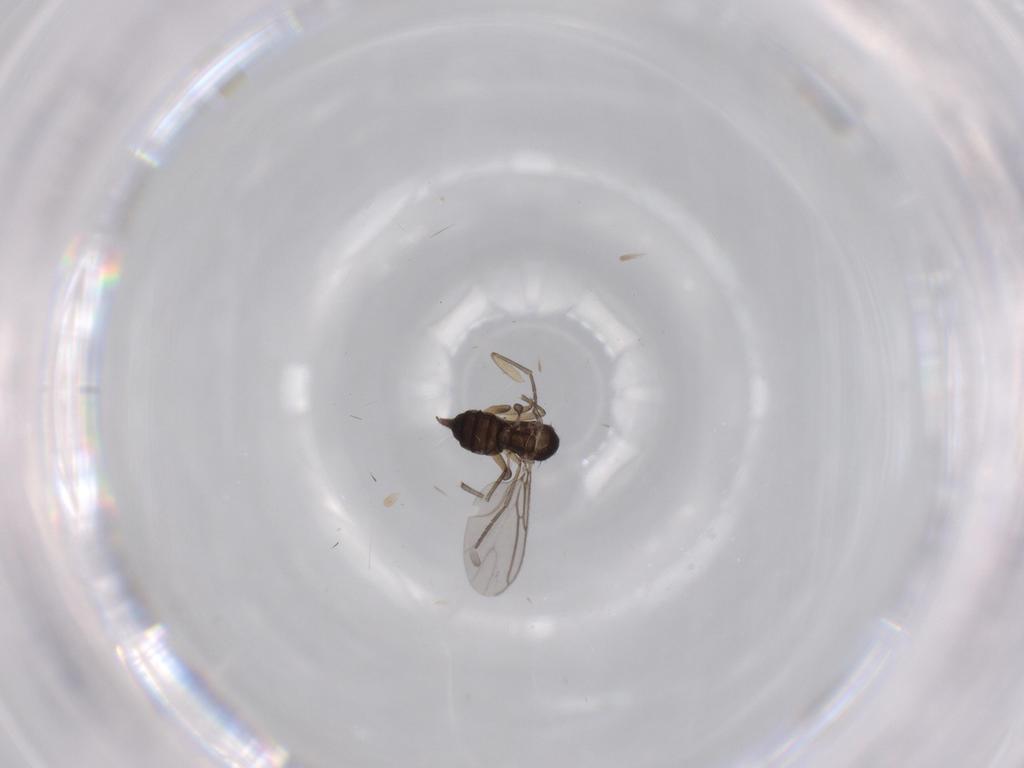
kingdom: Animalia
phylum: Arthropoda
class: Insecta
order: Diptera
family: Sciaridae
